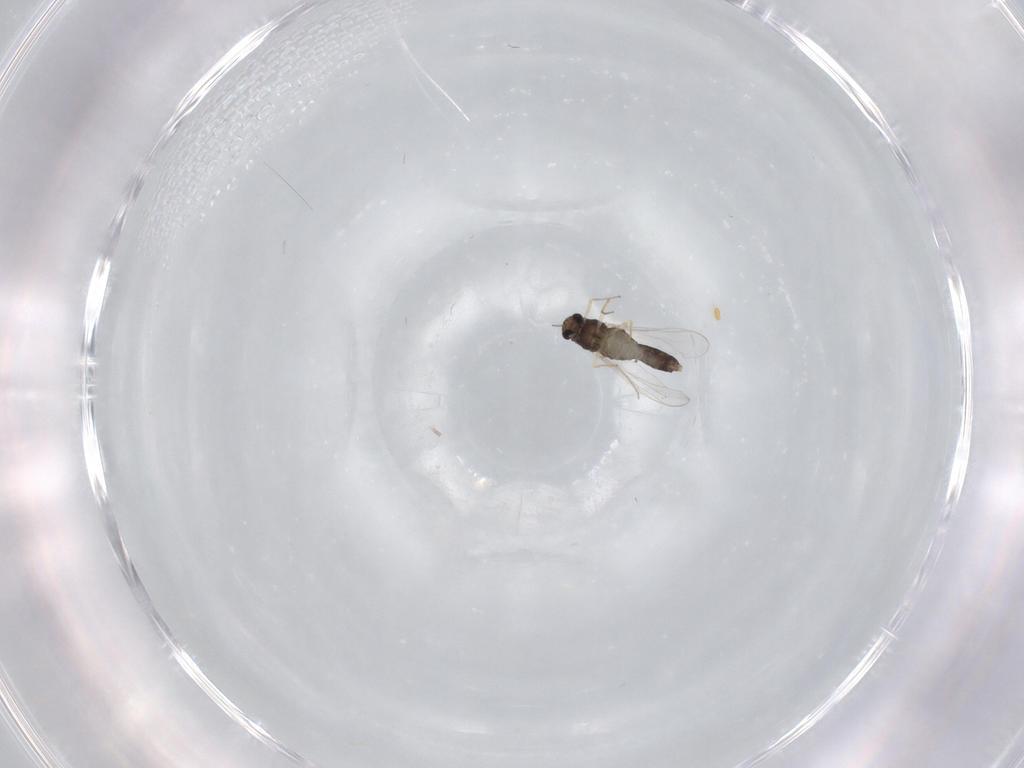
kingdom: Animalia
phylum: Arthropoda
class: Insecta
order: Diptera
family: Chironomidae
